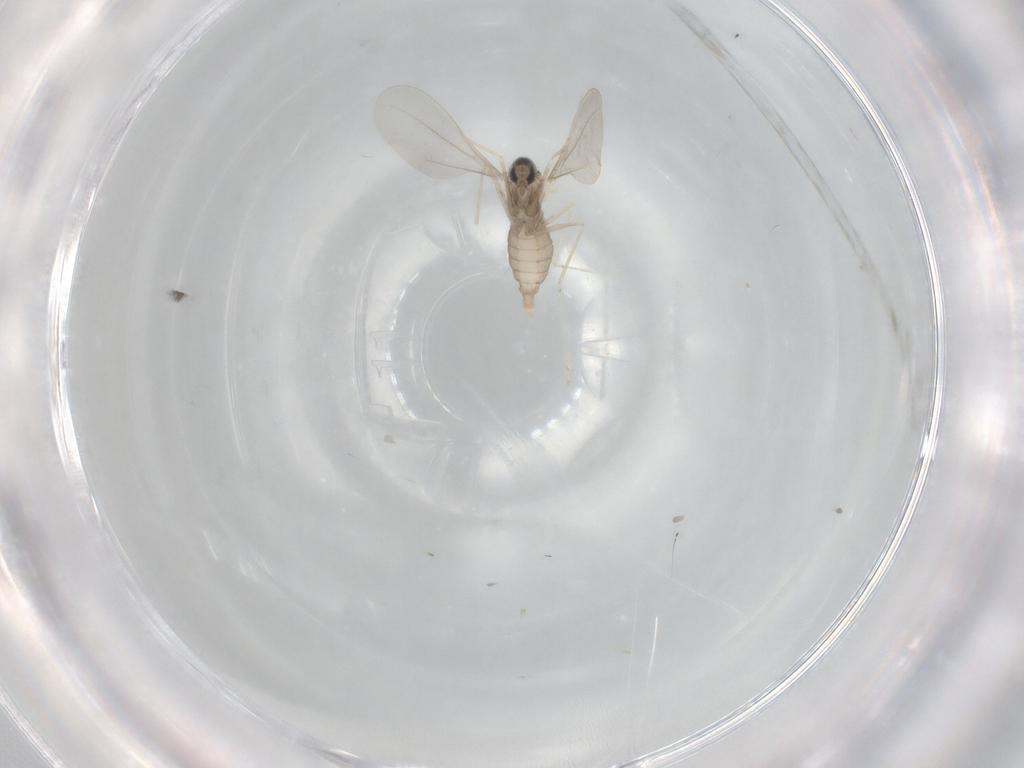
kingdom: Animalia
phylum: Arthropoda
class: Insecta
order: Diptera
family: Cecidomyiidae
